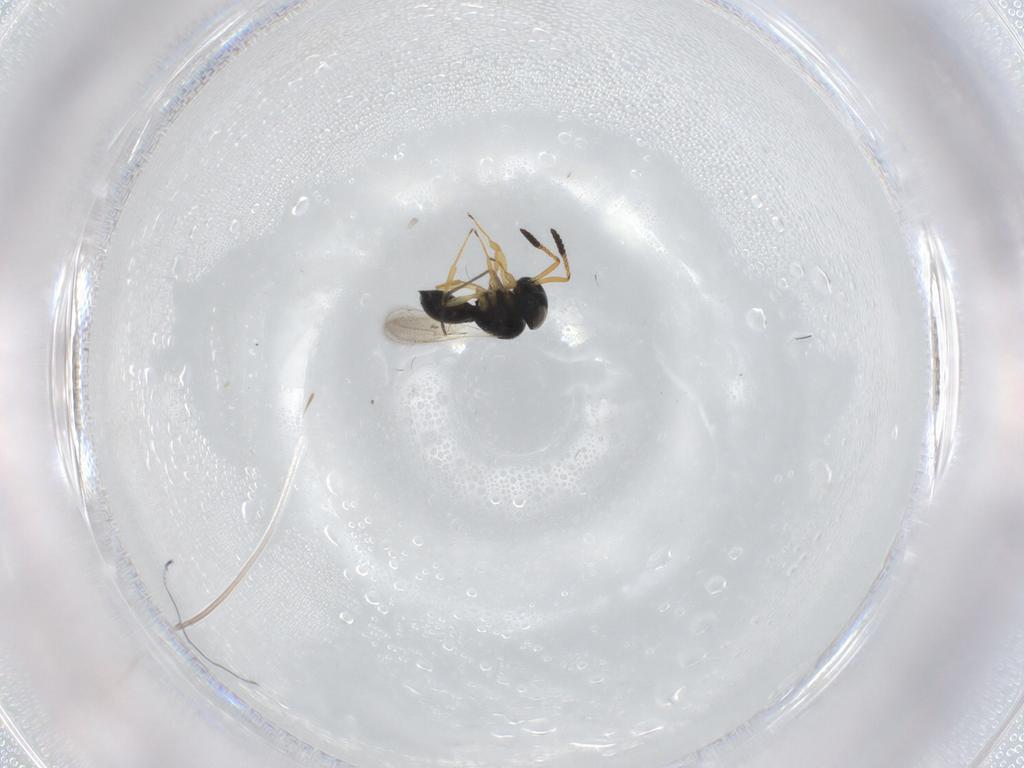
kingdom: Animalia
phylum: Arthropoda
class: Insecta
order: Hymenoptera
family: Scelionidae
